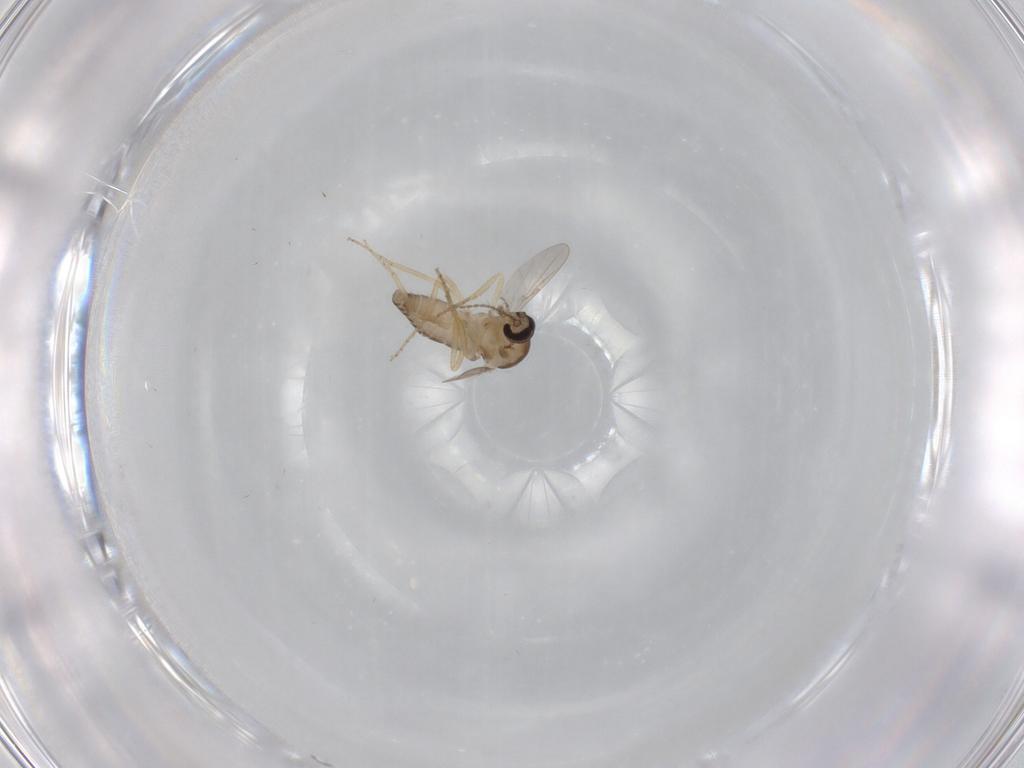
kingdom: Animalia
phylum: Arthropoda
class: Insecta
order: Diptera
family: Ceratopogonidae
